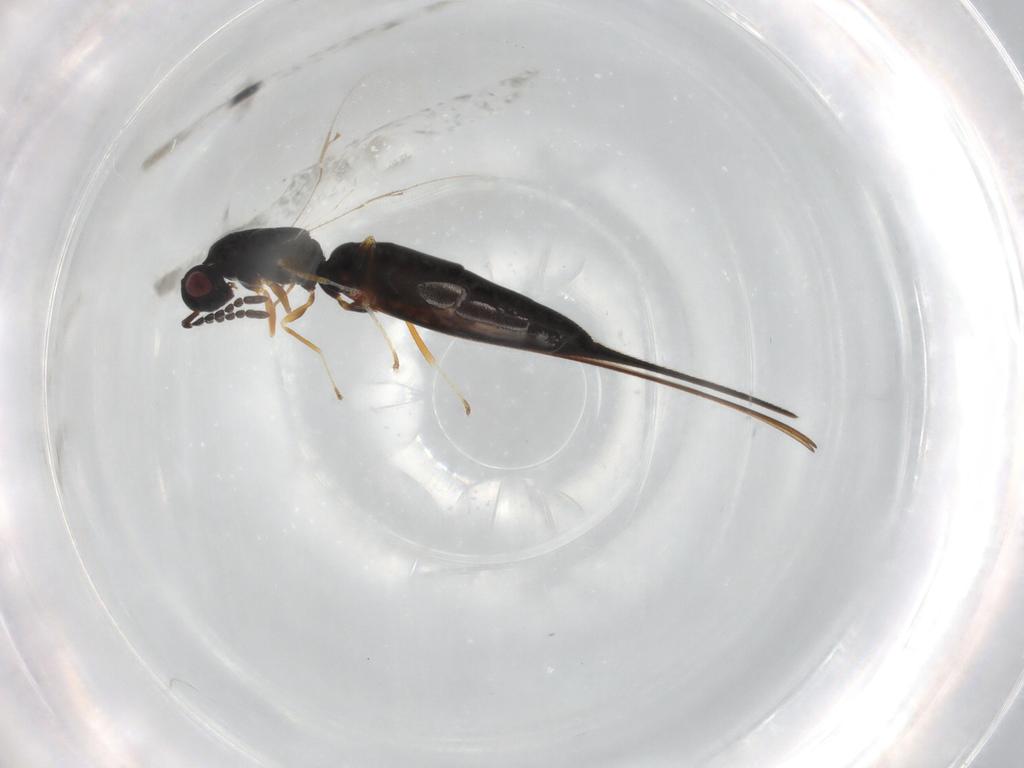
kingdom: Animalia
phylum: Arthropoda
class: Insecta
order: Hymenoptera
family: Eurytomidae
